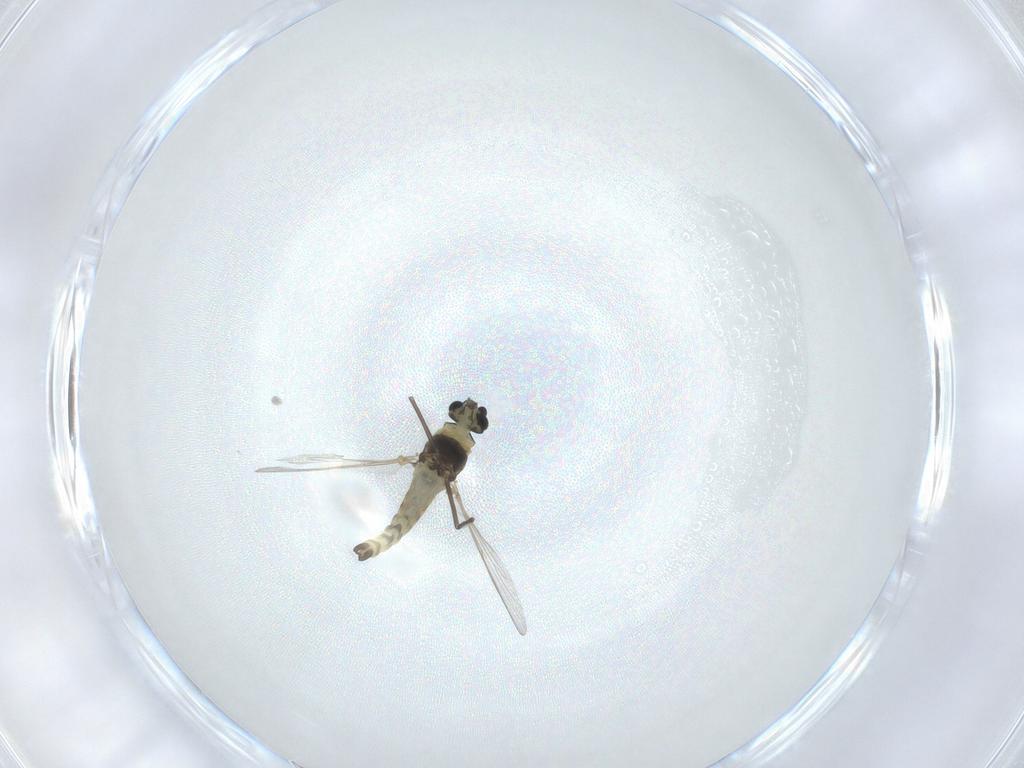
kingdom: Animalia
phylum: Arthropoda
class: Insecta
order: Diptera
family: Chironomidae
